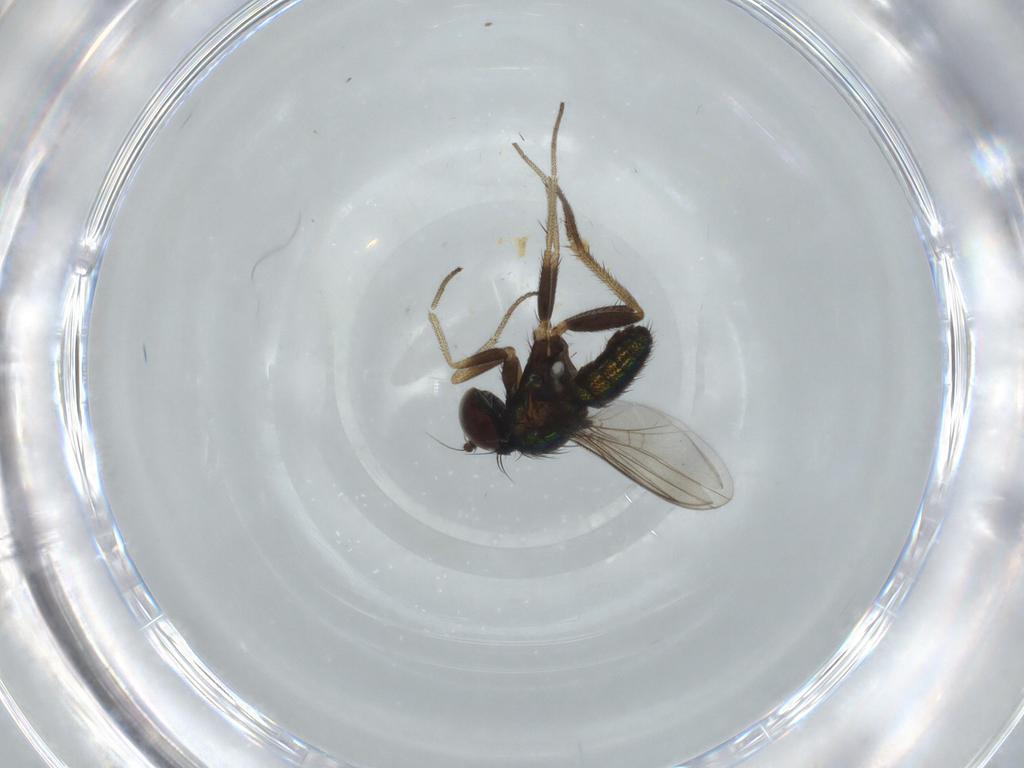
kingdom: Animalia
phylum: Arthropoda
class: Insecta
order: Diptera
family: Dolichopodidae
